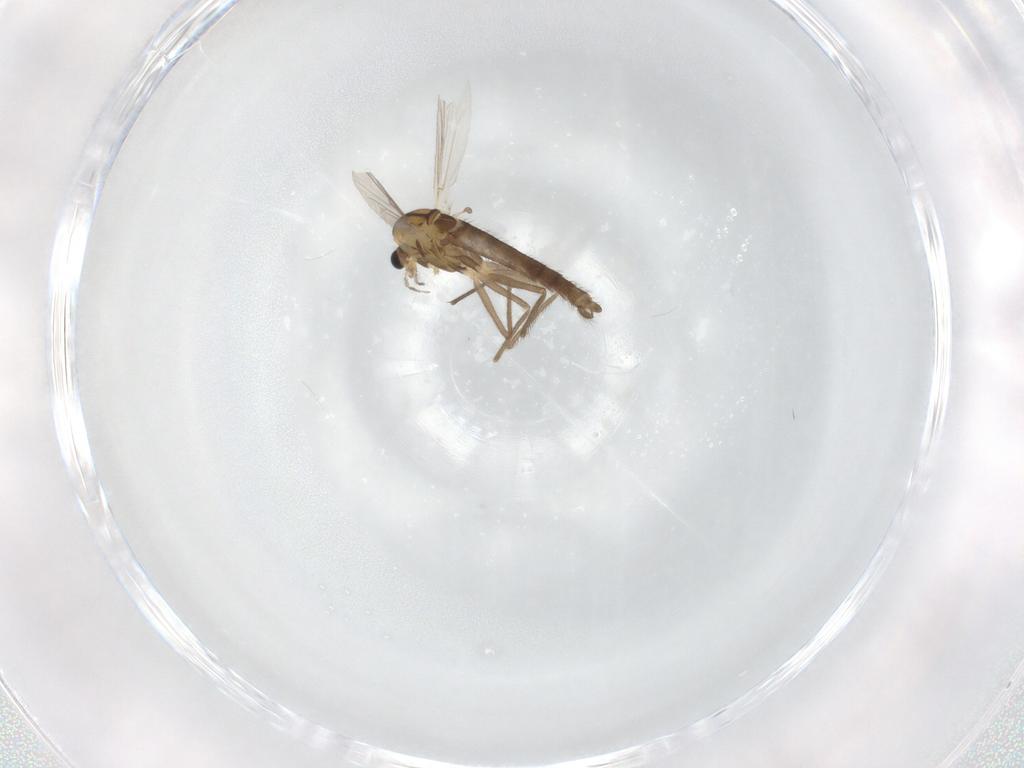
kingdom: Animalia
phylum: Arthropoda
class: Insecta
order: Diptera
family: Chironomidae
